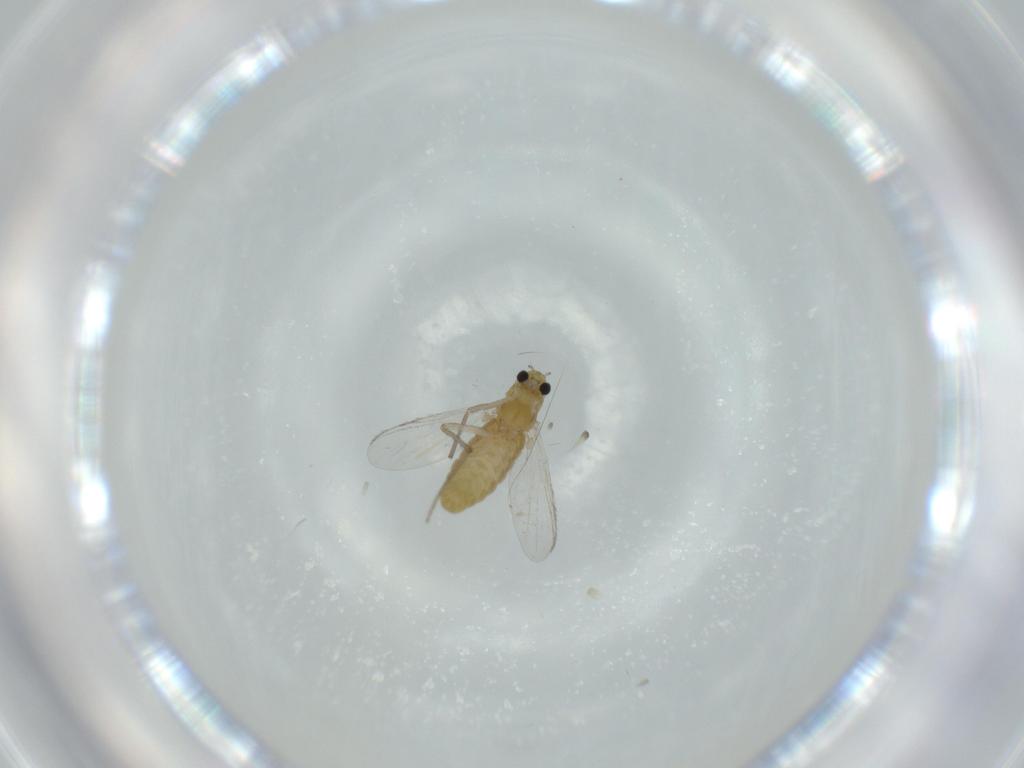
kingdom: Animalia
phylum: Arthropoda
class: Insecta
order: Diptera
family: Chironomidae
